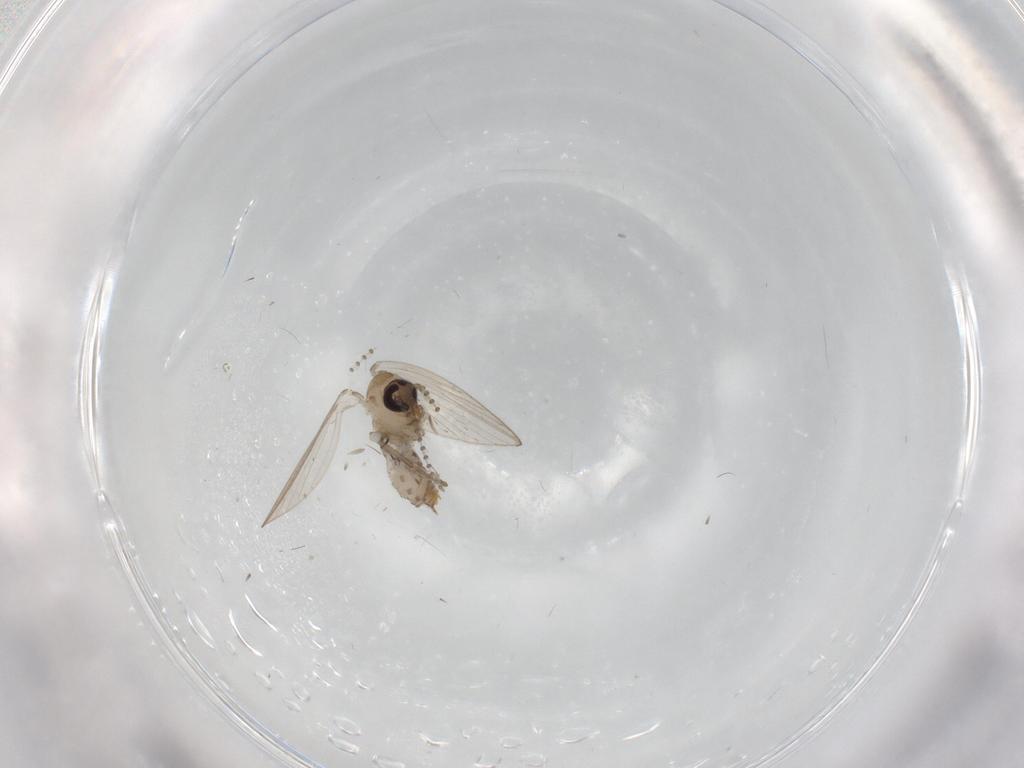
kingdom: Animalia
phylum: Arthropoda
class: Insecta
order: Diptera
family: Psychodidae
